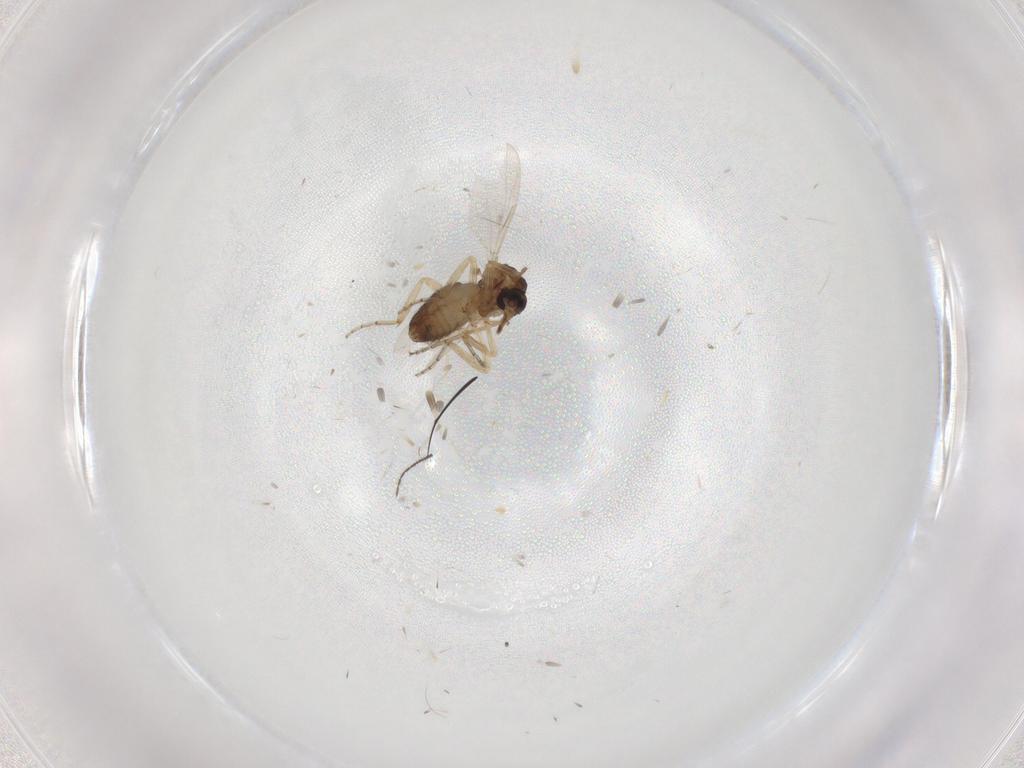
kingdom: Animalia
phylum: Arthropoda
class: Insecta
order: Diptera
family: Ceratopogonidae
